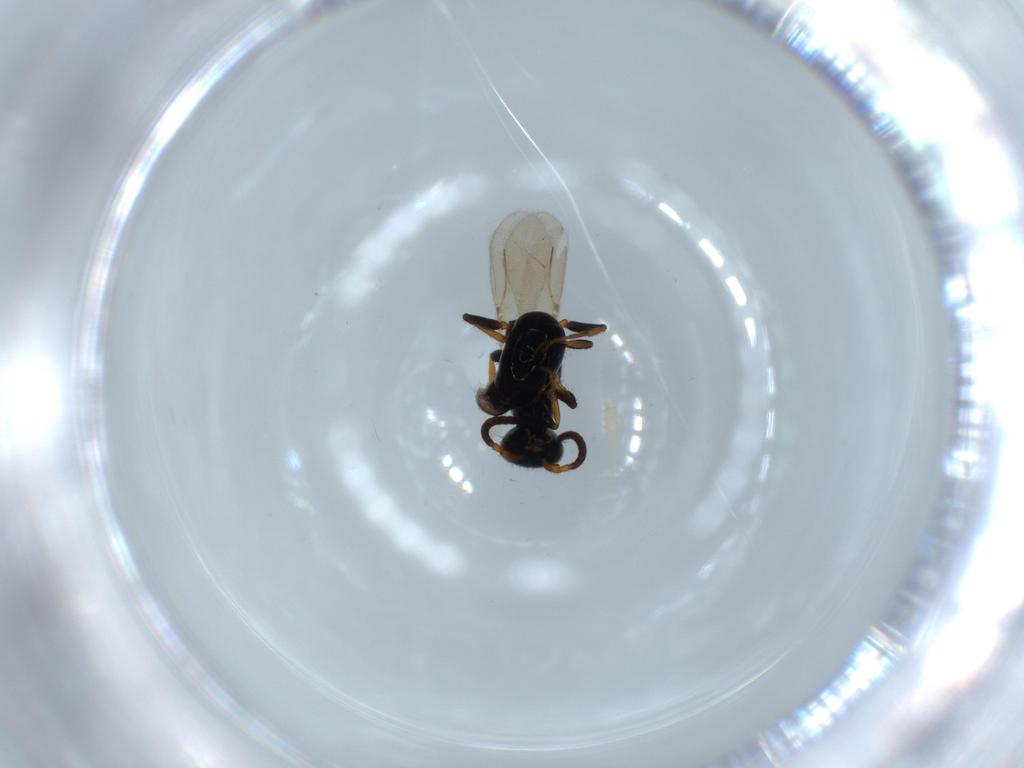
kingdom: Animalia
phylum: Arthropoda
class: Insecta
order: Hymenoptera
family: Bethylidae
